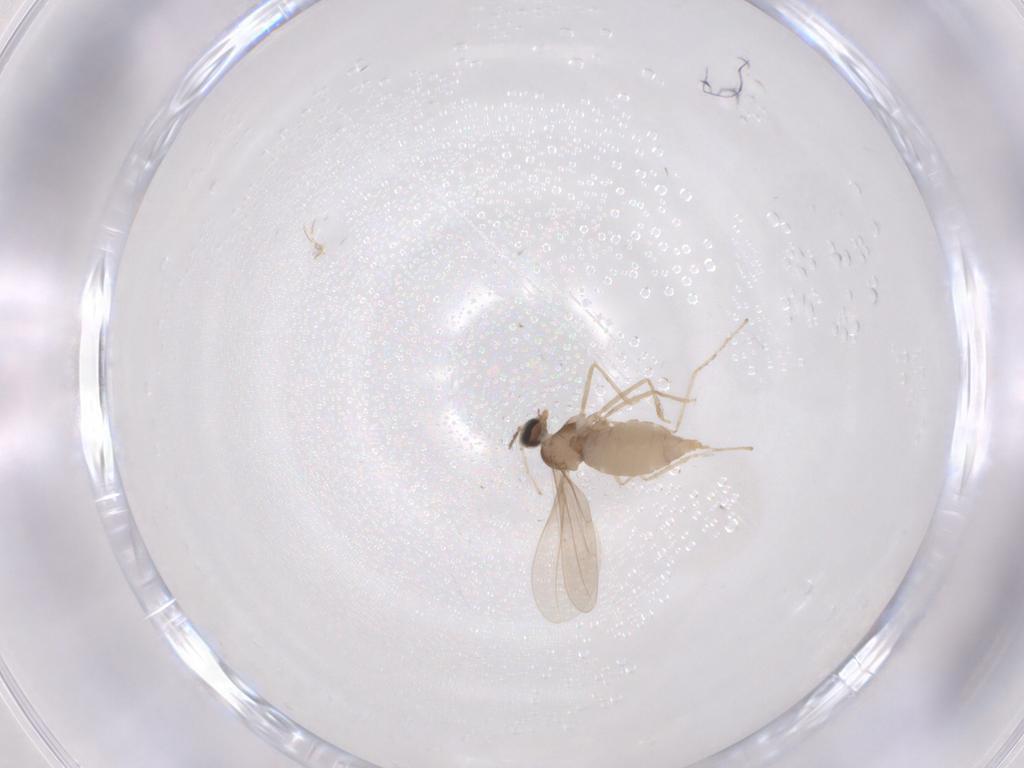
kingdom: Animalia
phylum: Arthropoda
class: Insecta
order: Diptera
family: Cecidomyiidae
